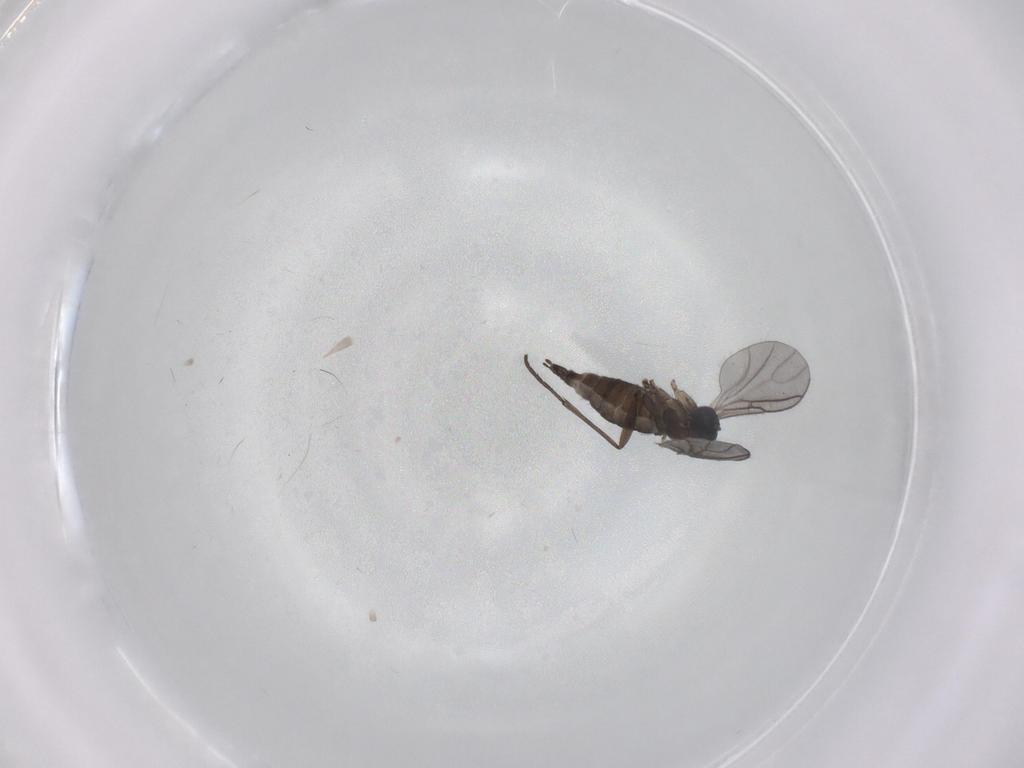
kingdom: Animalia
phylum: Arthropoda
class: Insecta
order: Diptera
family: Sciaridae
